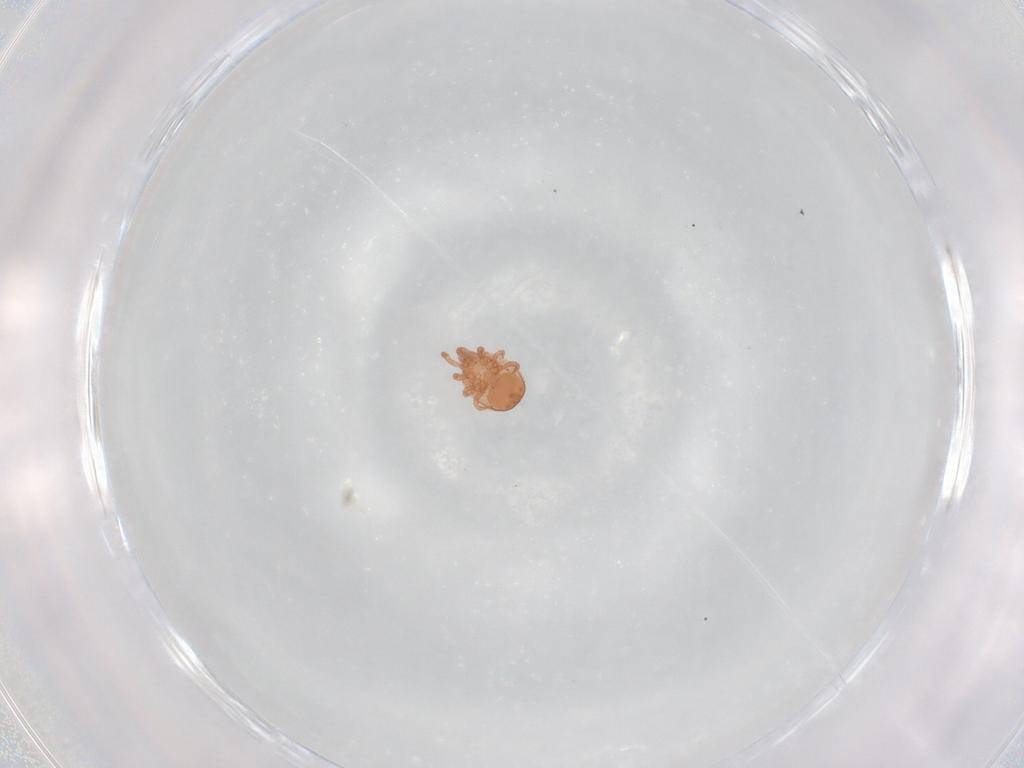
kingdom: Animalia
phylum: Arthropoda
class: Arachnida
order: Mesostigmata
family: Zerconidae
